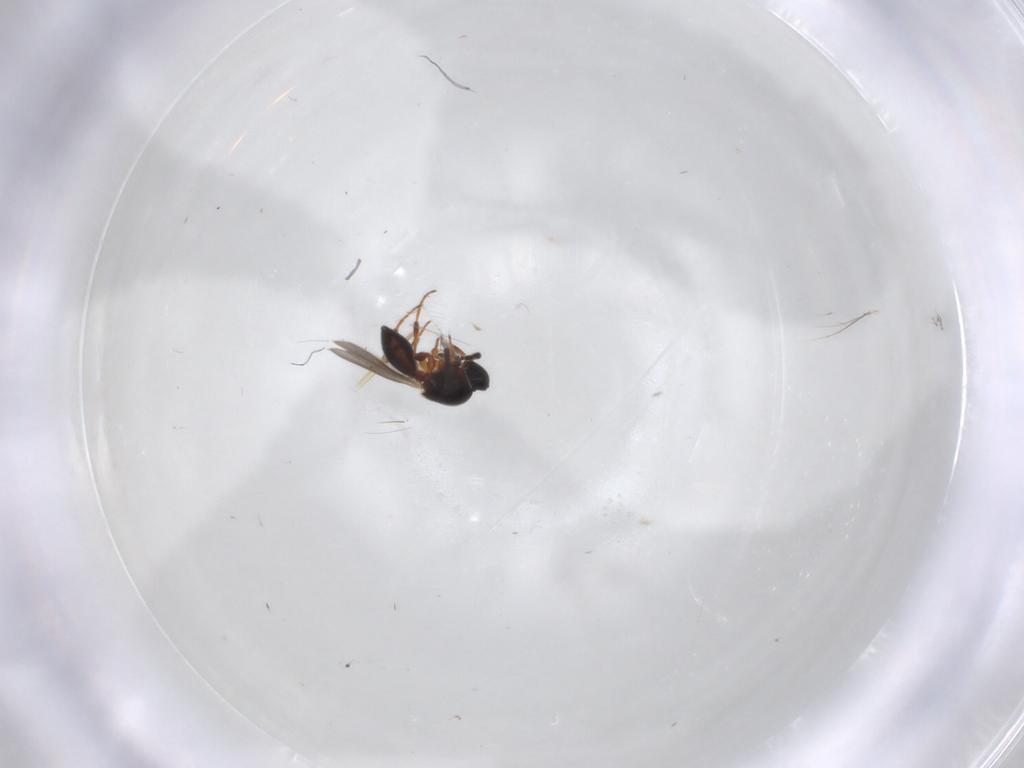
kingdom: Animalia
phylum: Arthropoda
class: Insecta
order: Hymenoptera
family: Platygastridae
